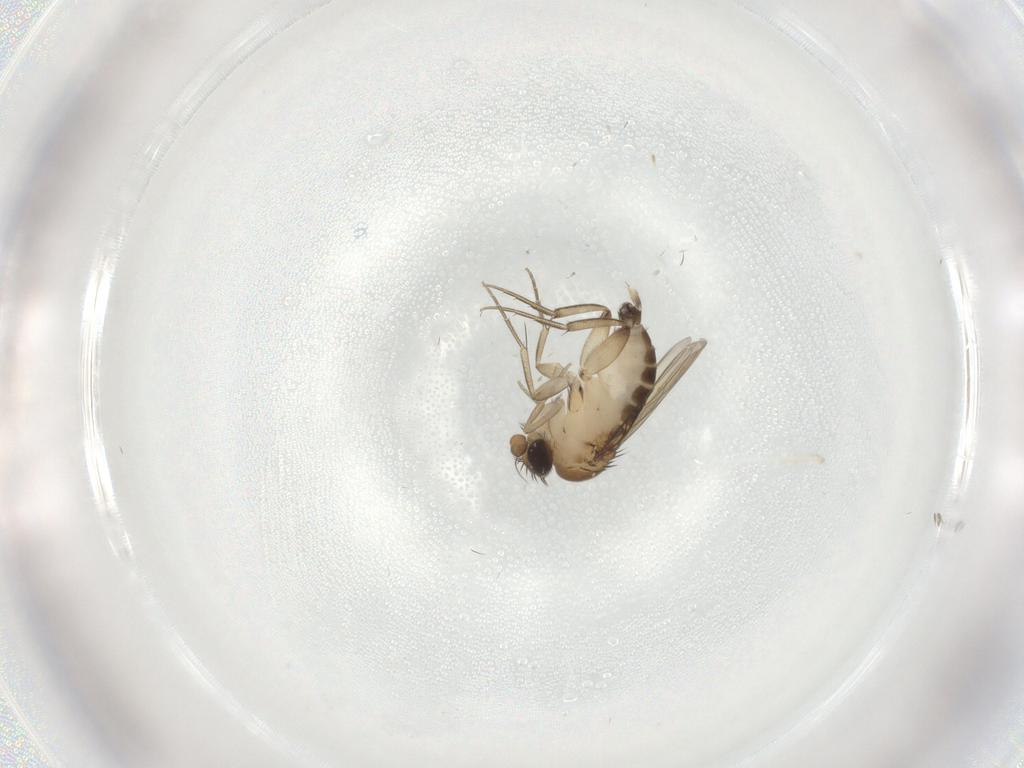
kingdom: Animalia
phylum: Arthropoda
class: Insecta
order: Diptera
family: Phoridae
